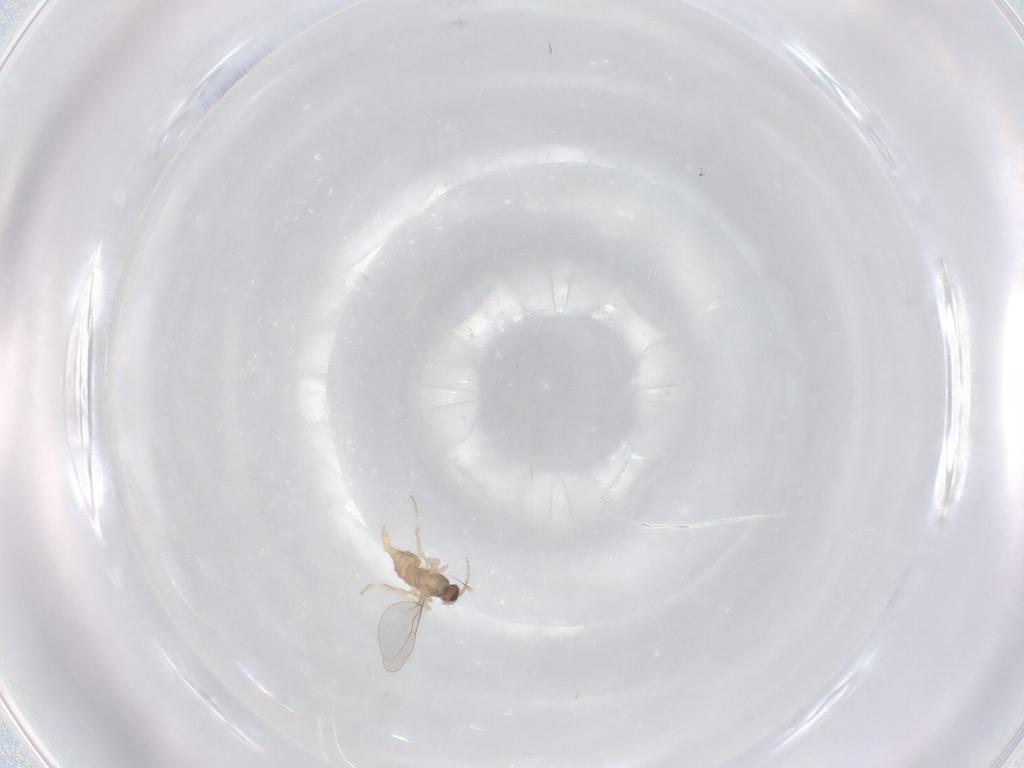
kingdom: Animalia
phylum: Arthropoda
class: Insecta
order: Diptera
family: Cecidomyiidae
